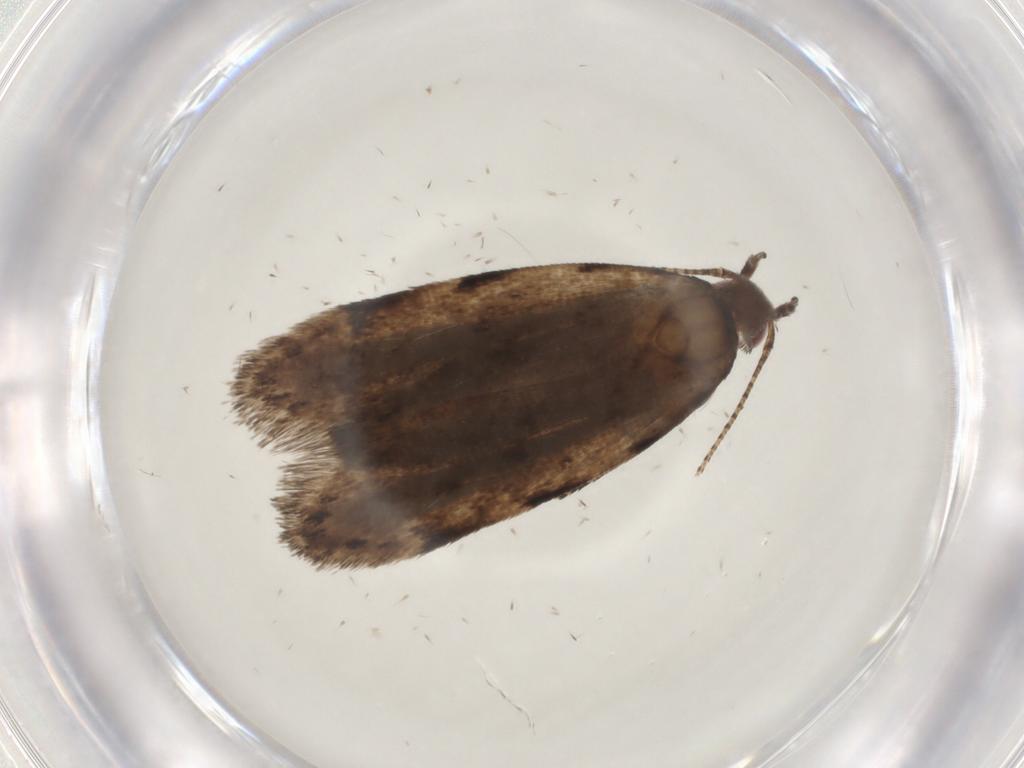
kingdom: Animalia
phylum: Arthropoda
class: Insecta
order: Lepidoptera
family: Gelechiidae
